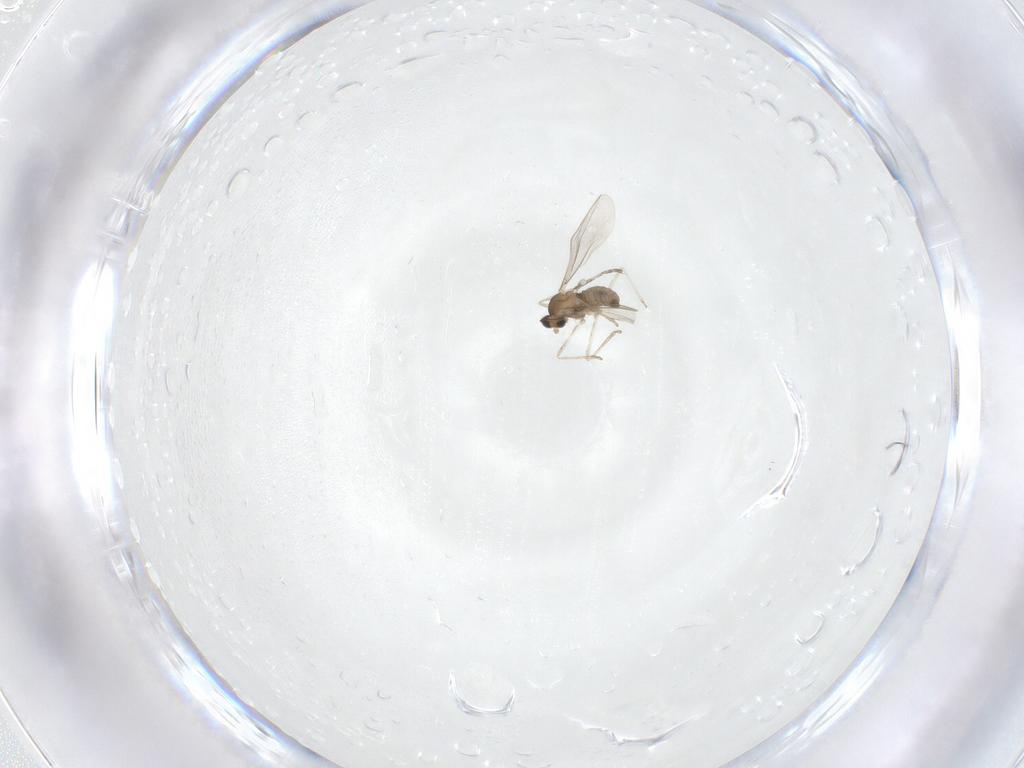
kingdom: Animalia
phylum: Arthropoda
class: Insecta
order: Diptera
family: Cecidomyiidae
